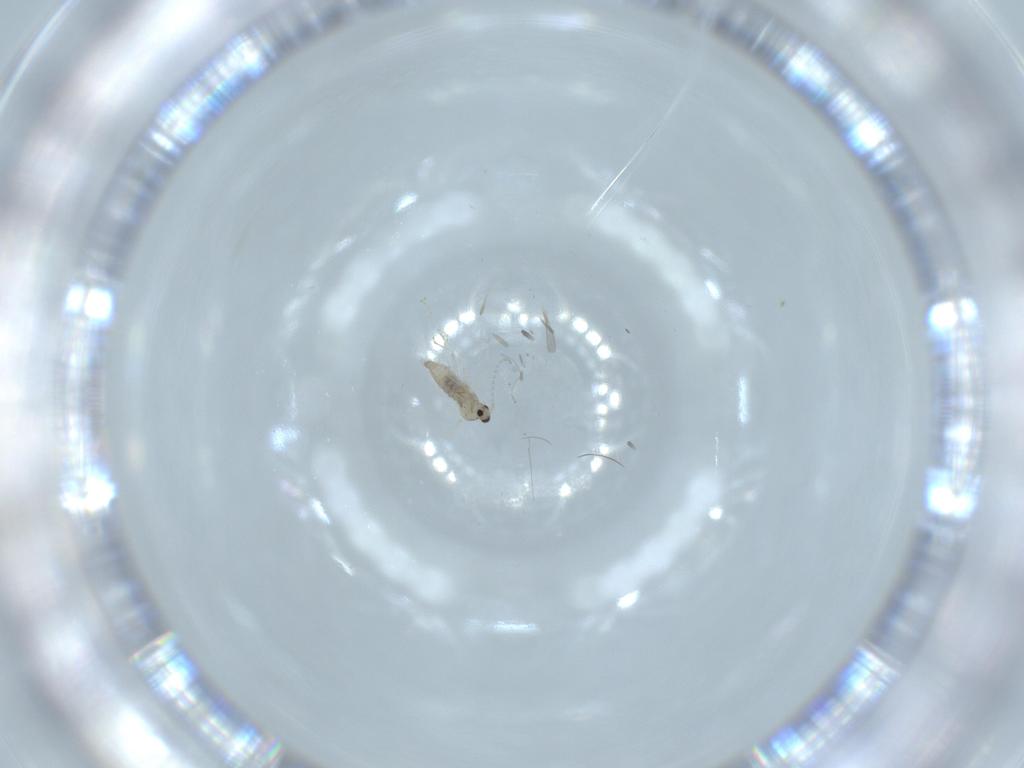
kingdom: Animalia
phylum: Arthropoda
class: Insecta
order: Diptera
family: Cecidomyiidae
